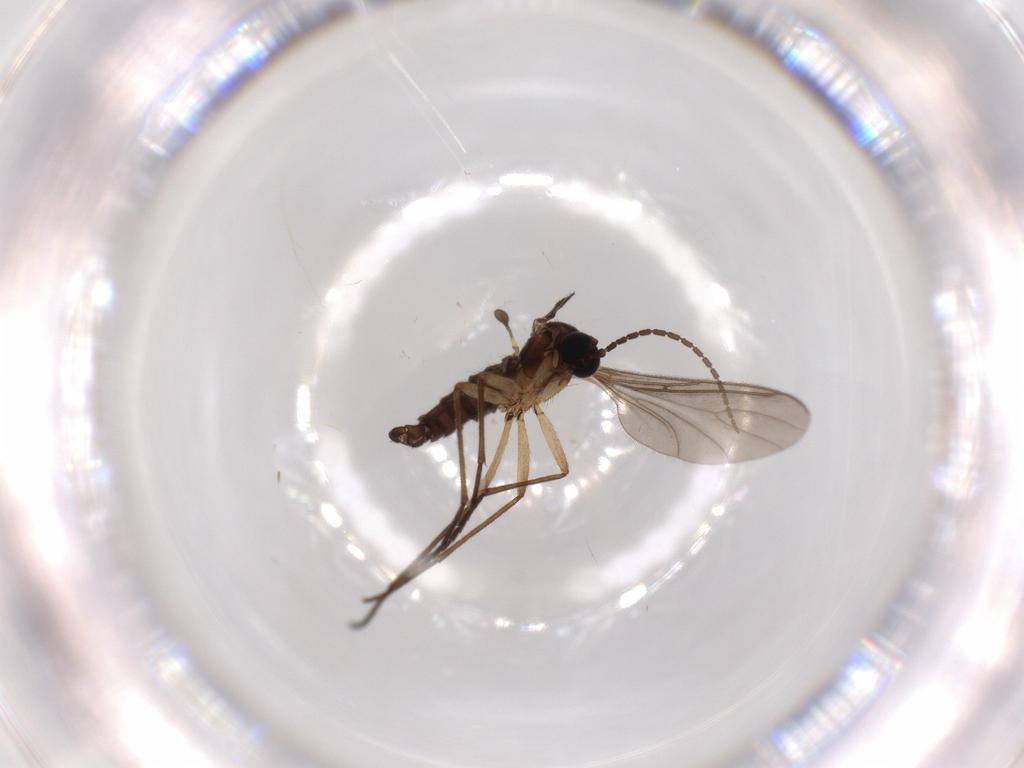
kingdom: Animalia
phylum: Arthropoda
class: Insecta
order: Diptera
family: Sciaridae
